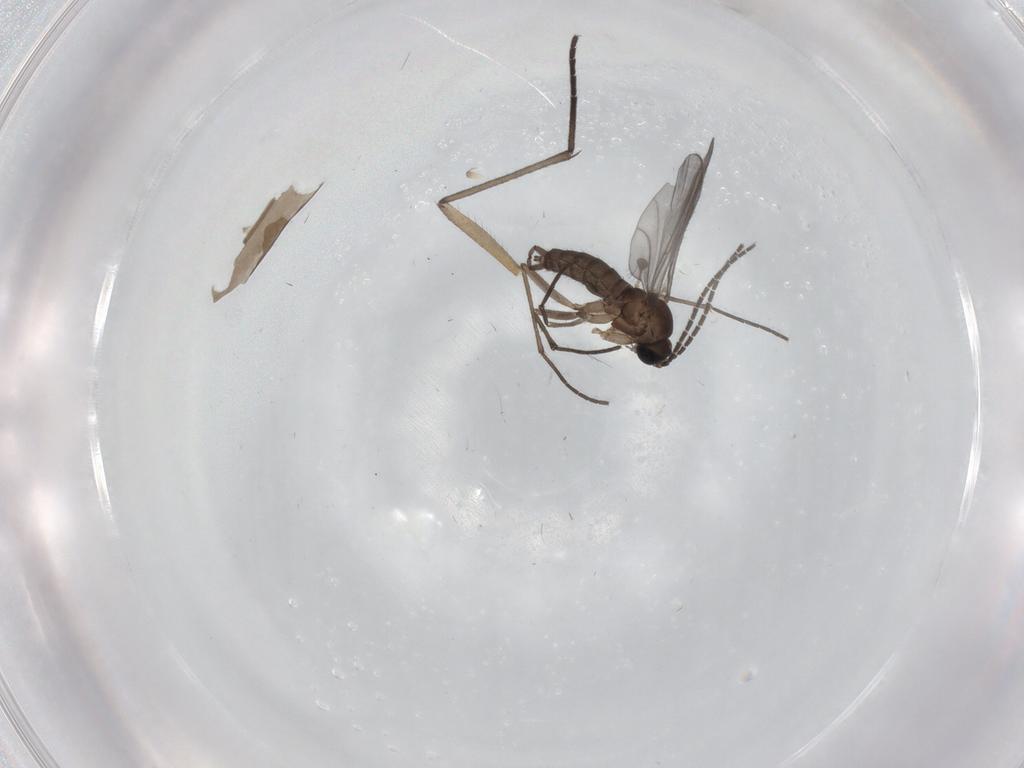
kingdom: Animalia
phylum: Arthropoda
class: Insecta
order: Diptera
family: Sciaridae
